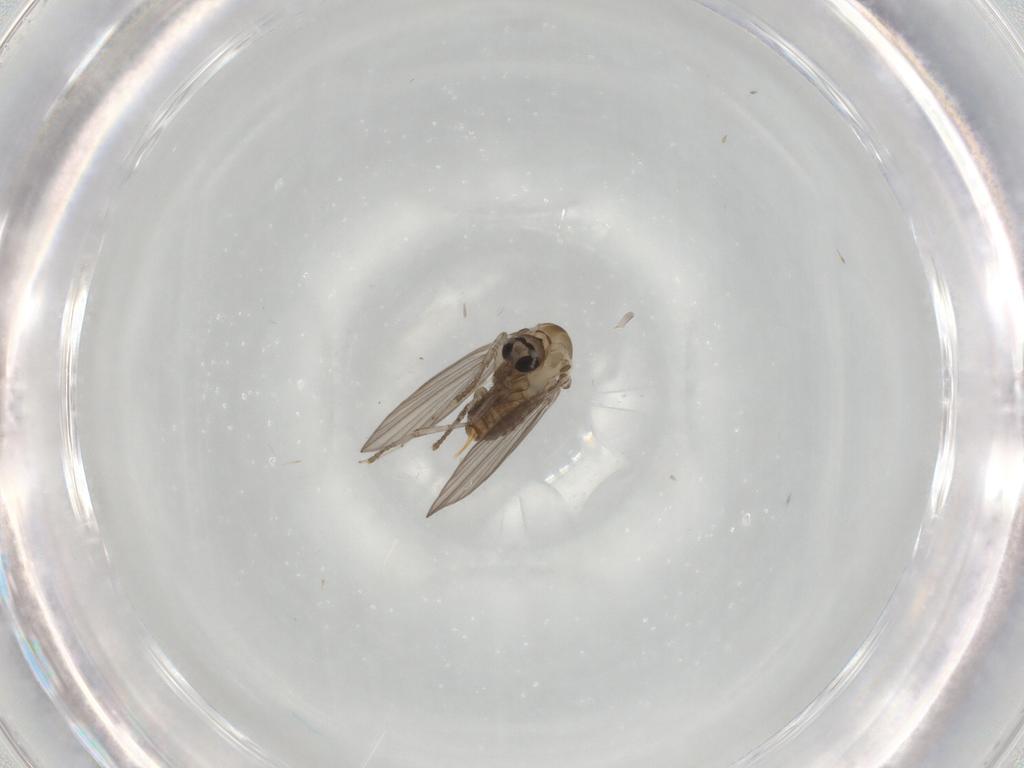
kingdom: Animalia
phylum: Arthropoda
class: Insecta
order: Diptera
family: Psychodidae
